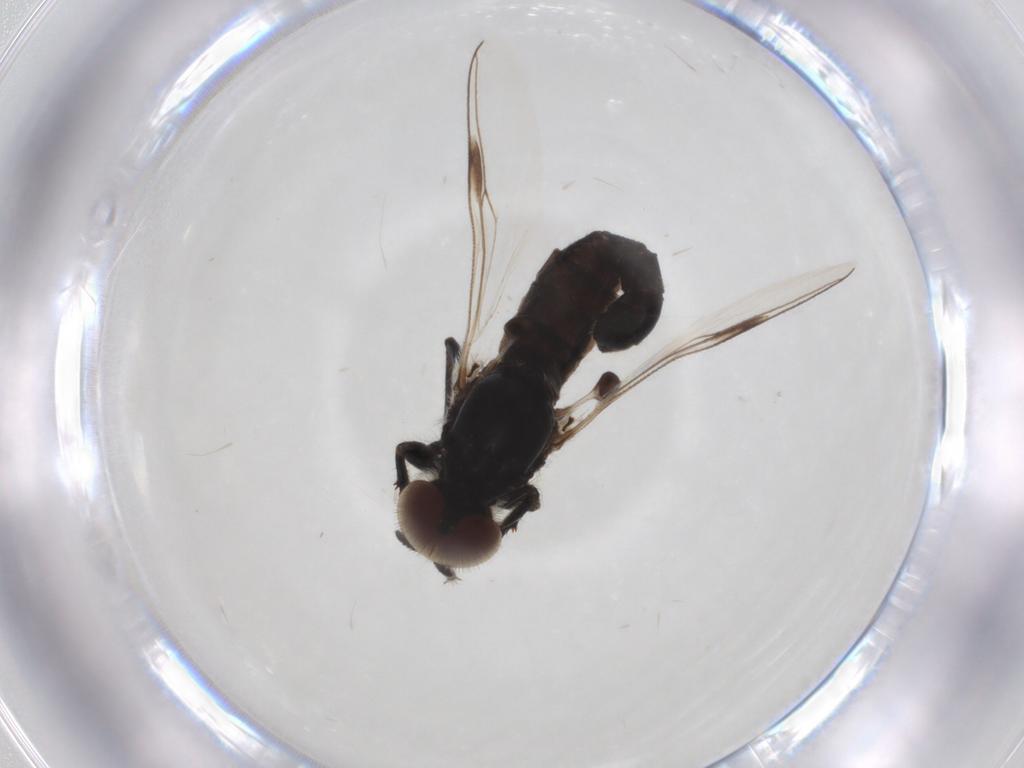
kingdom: Animalia
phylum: Arthropoda
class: Insecta
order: Diptera
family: Bibionidae
